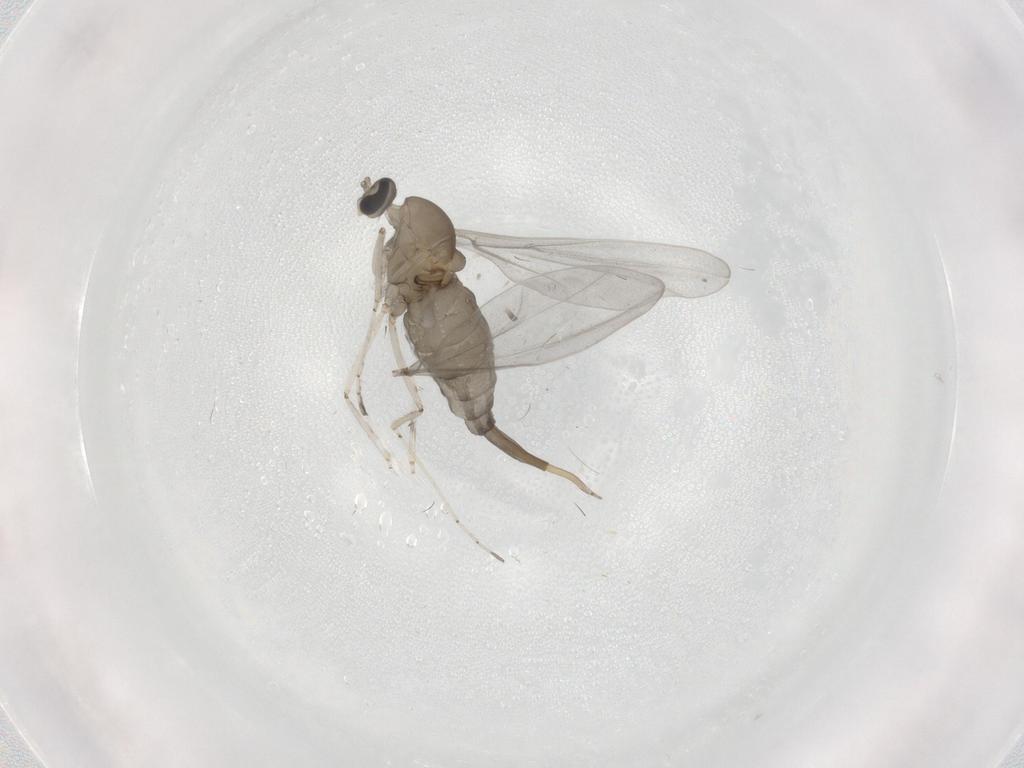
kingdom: Animalia
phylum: Arthropoda
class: Insecta
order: Diptera
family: Cecidomyiidae
